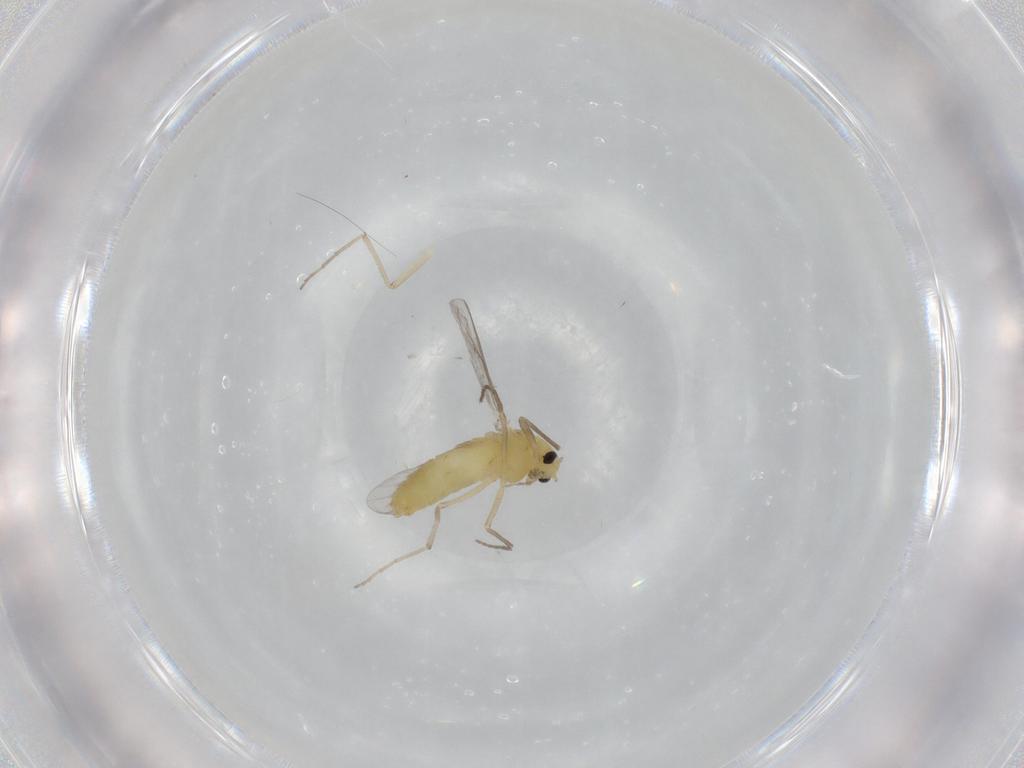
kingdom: Animalia
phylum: Arthropoda
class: Insecta
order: Diptera
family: Chironomidae
